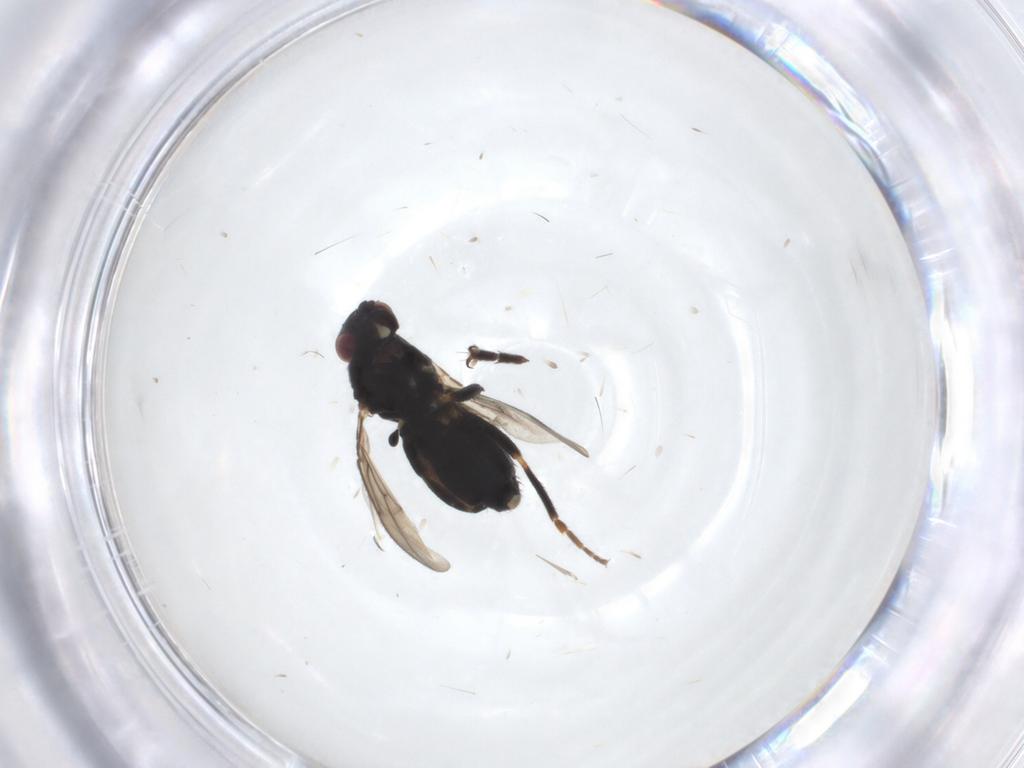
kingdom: Animalia
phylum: Arthropoda
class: Insecta
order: Diptera
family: Sphaeroceridae
